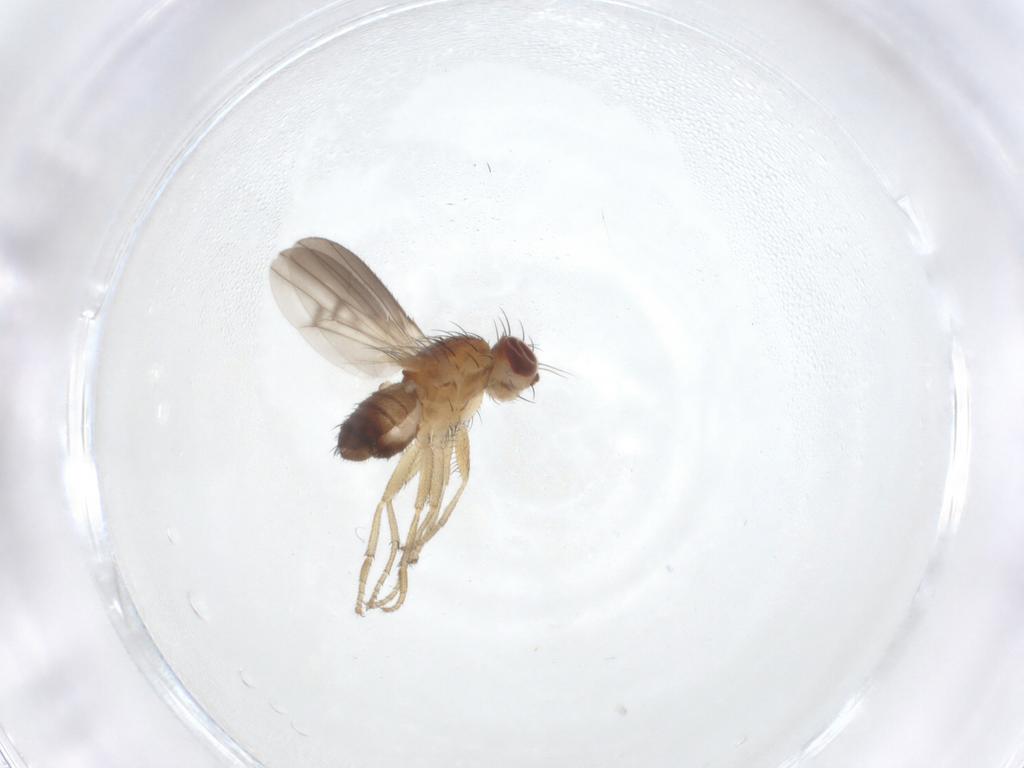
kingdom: Animalia
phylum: Arthropoda
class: Insecta
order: Diptera
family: Heleomyzidae
